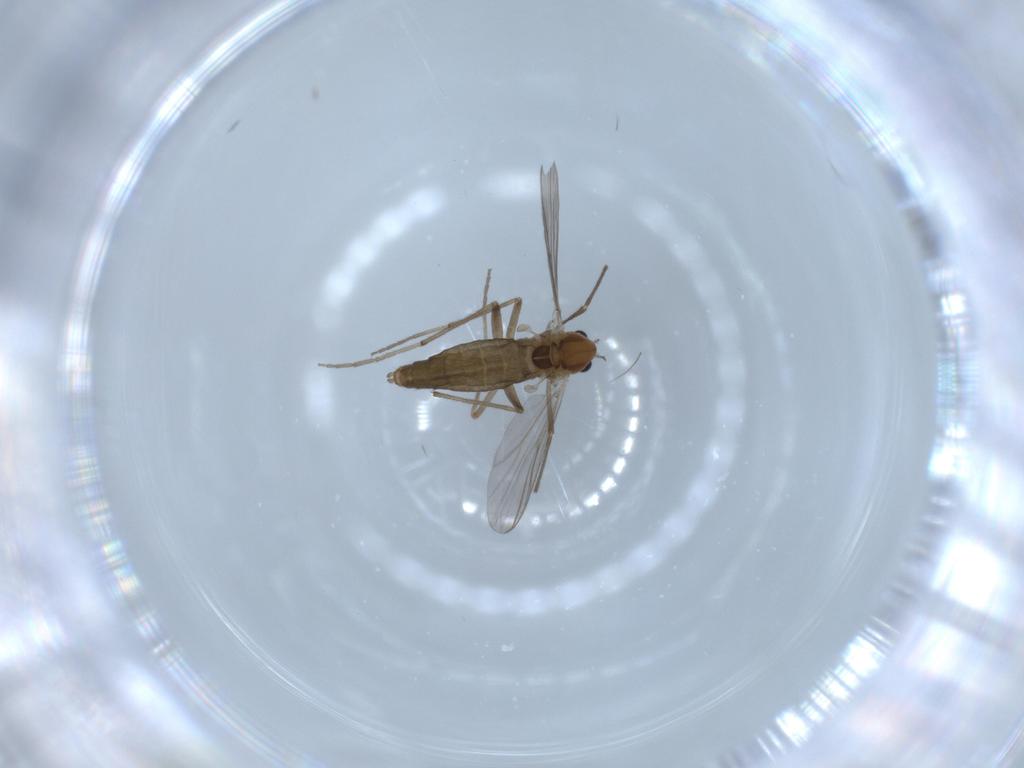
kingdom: Animalia
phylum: Arthropoda
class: Insecta
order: Diptera
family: Chironomidae
